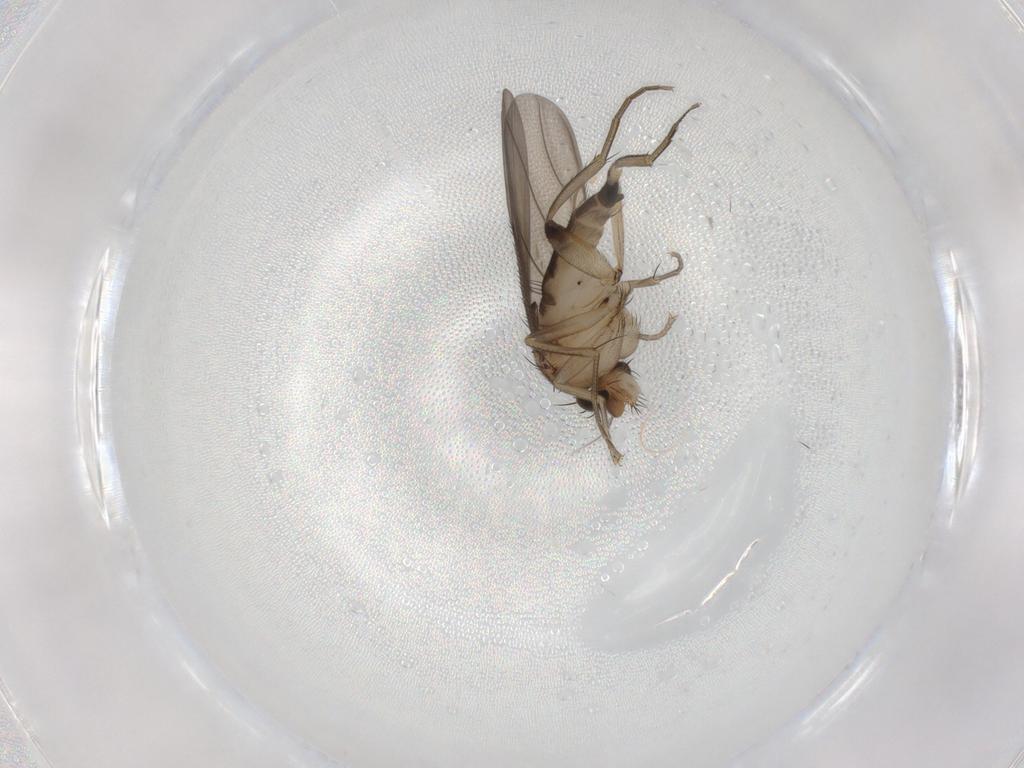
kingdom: Animalia
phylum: Arthropoda
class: Insecta
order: Diptera
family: Phoridae
